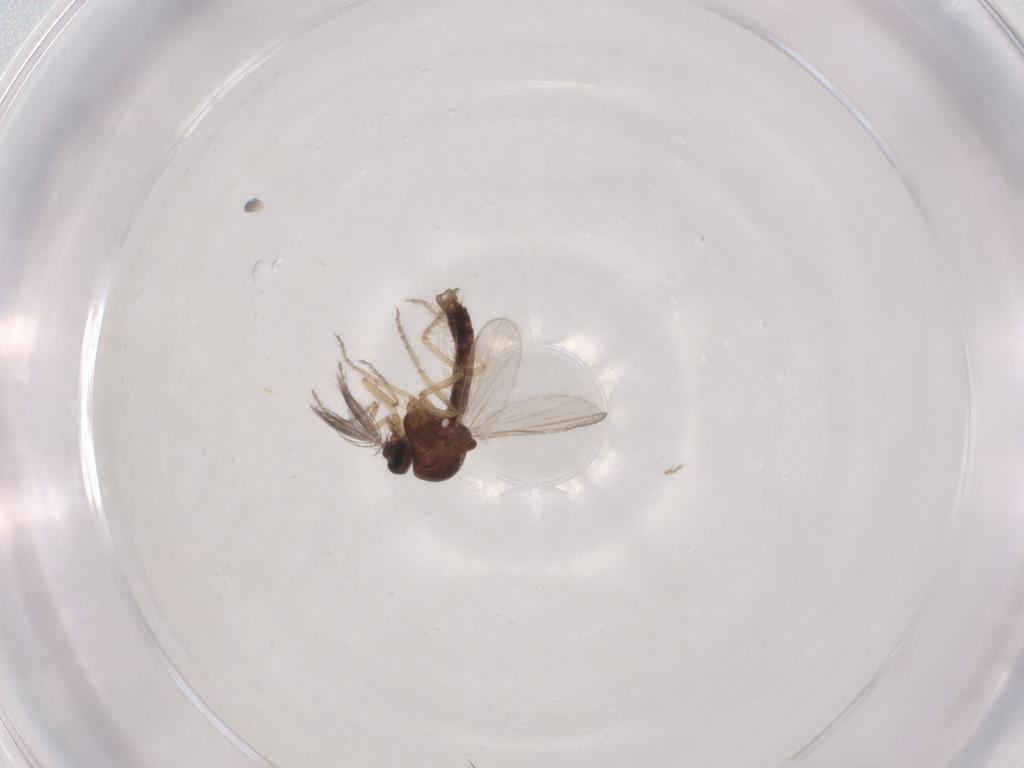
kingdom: Animalia
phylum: Arthropoda
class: Insecta
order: Diptera
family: Ceratopogonidae
